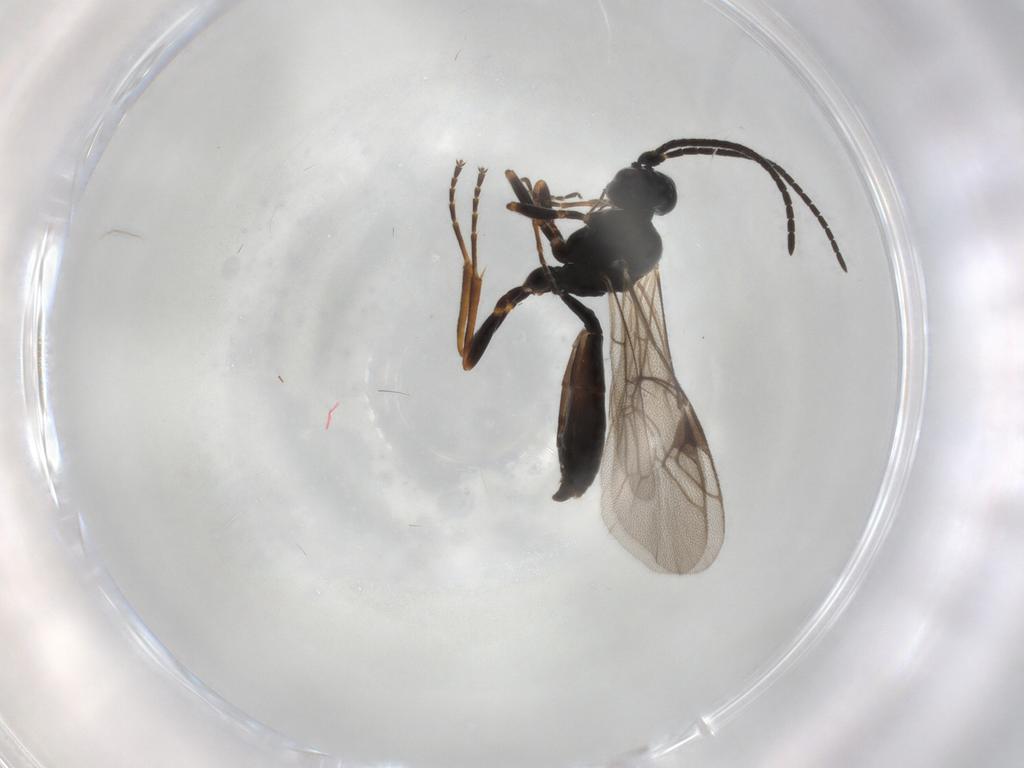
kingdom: Animalia
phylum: Arthropoda
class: Insecta
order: Hymenoptera
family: Ichneumonidae
